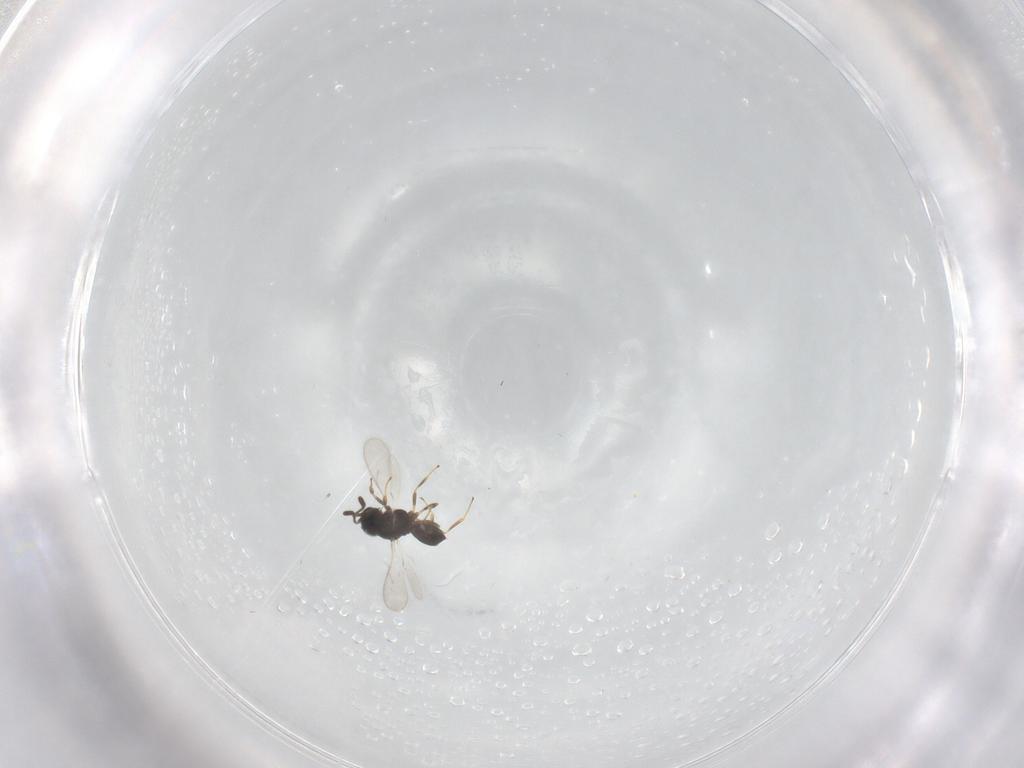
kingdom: Animalia
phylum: Arthropoda
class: Insecta
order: Hymenoptera
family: Scelionidae
